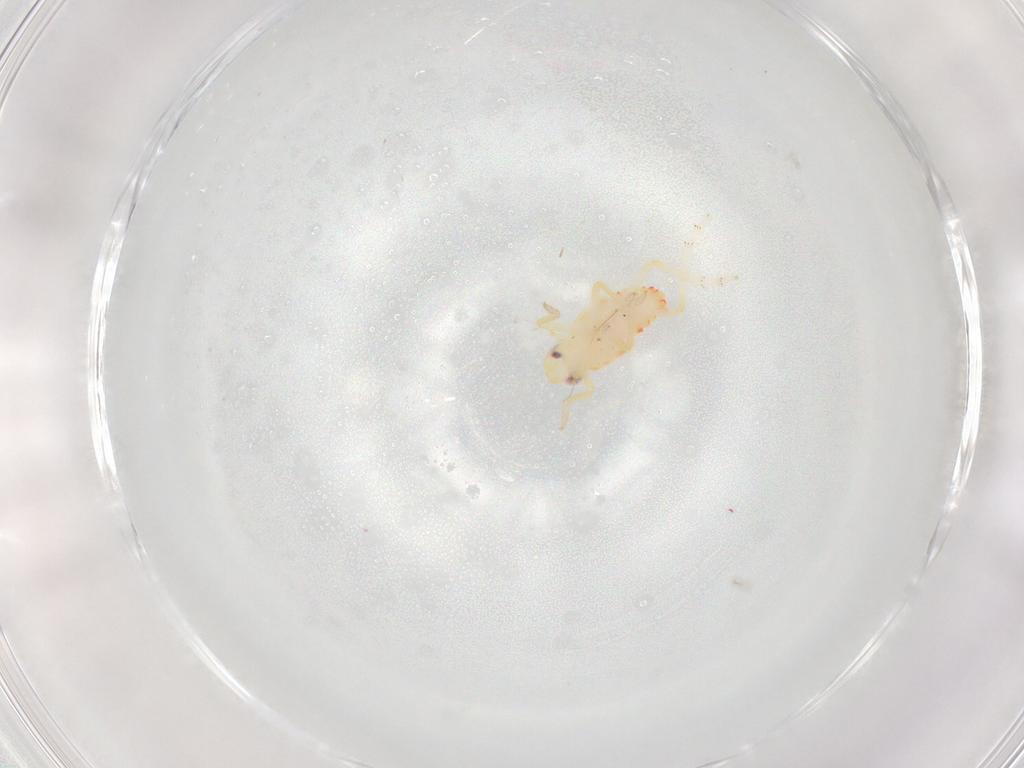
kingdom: Animalia
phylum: Arthropoda
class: Insecta
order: Hemiptera
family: Tropiduchidae
